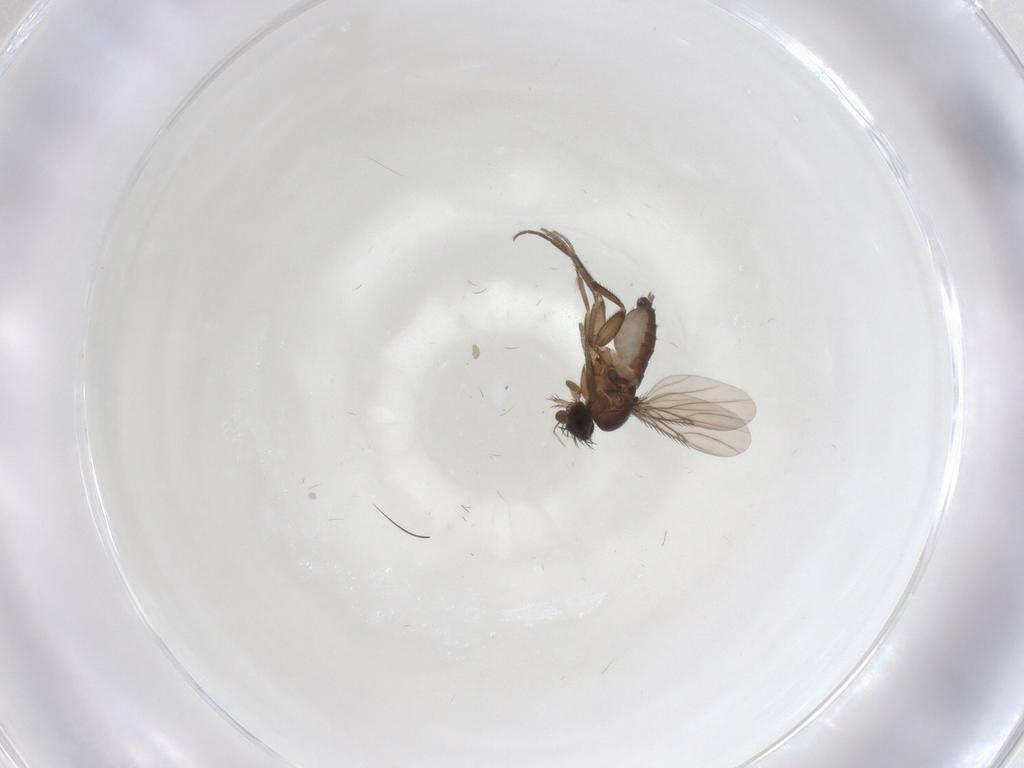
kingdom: Animalia
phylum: Arthropoda
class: Insecta
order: Diptera
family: Phoridae
